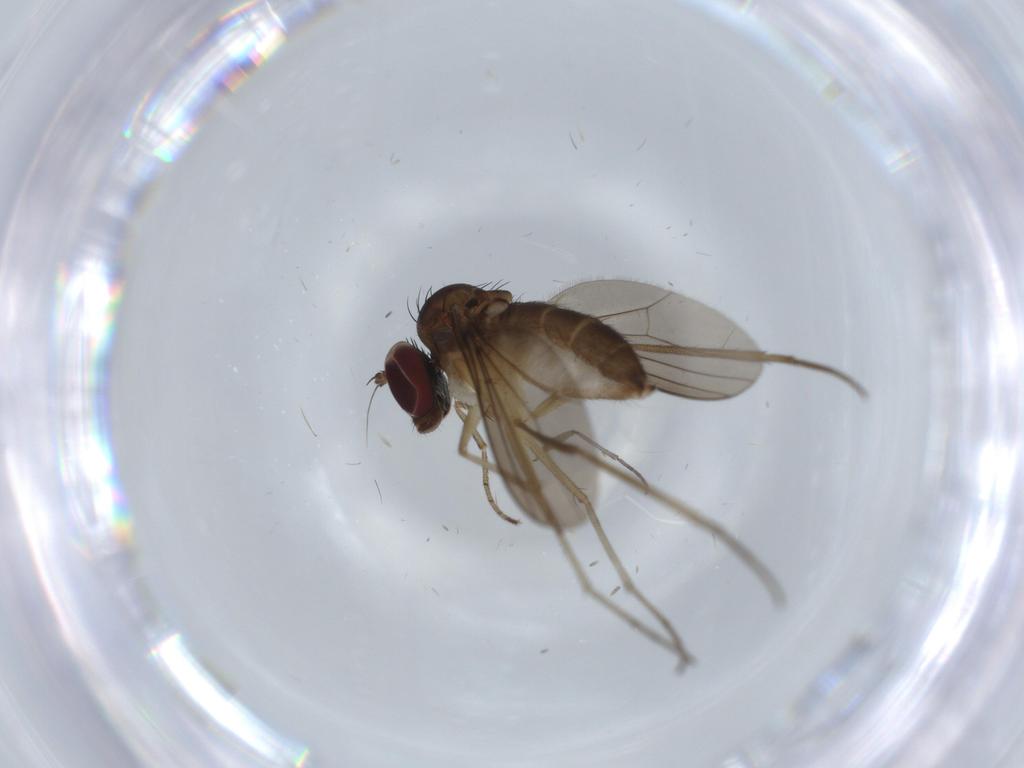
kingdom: Animalia
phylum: Arthropoda
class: Insecta
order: Diptera
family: Dolichopodidae
